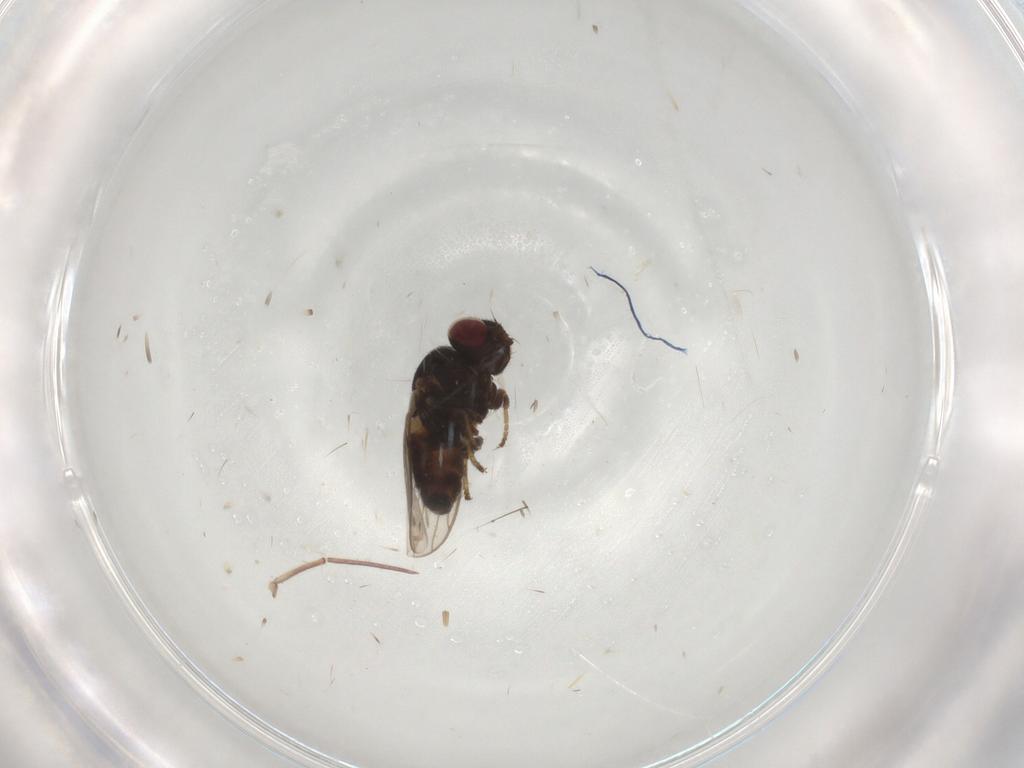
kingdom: Animalia
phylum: Arthropoda
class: Insecta
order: Diptera
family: Chloropidae
